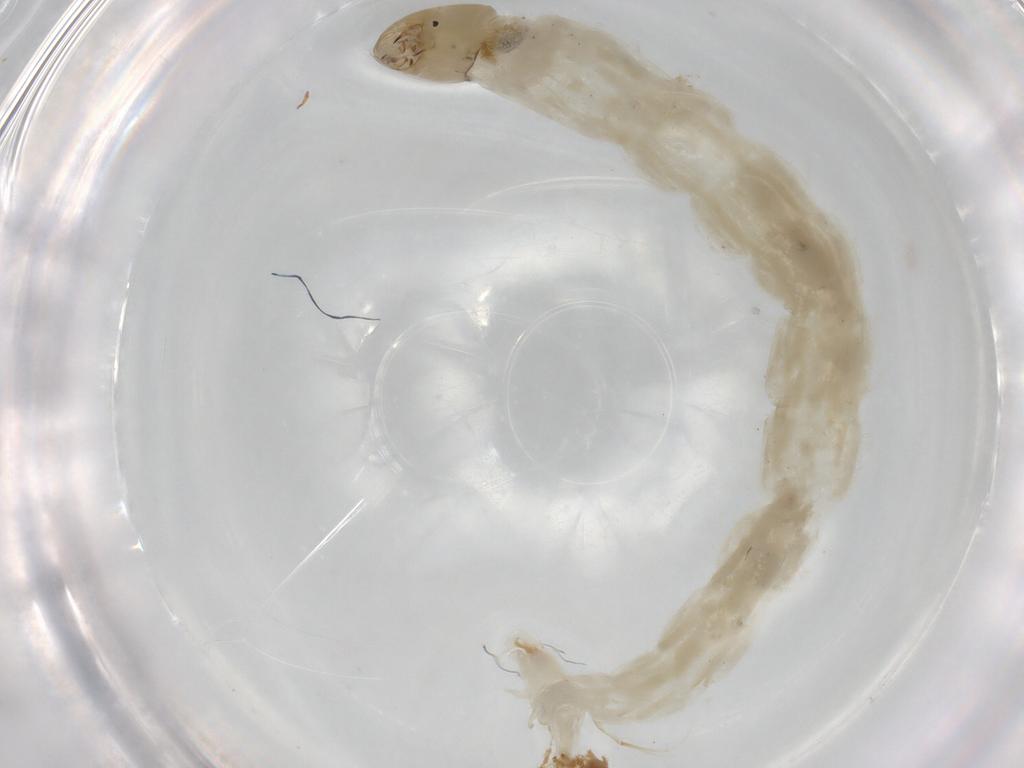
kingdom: Animalia
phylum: Arthropoda
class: Insecta
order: Diptera
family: Chironomidae
